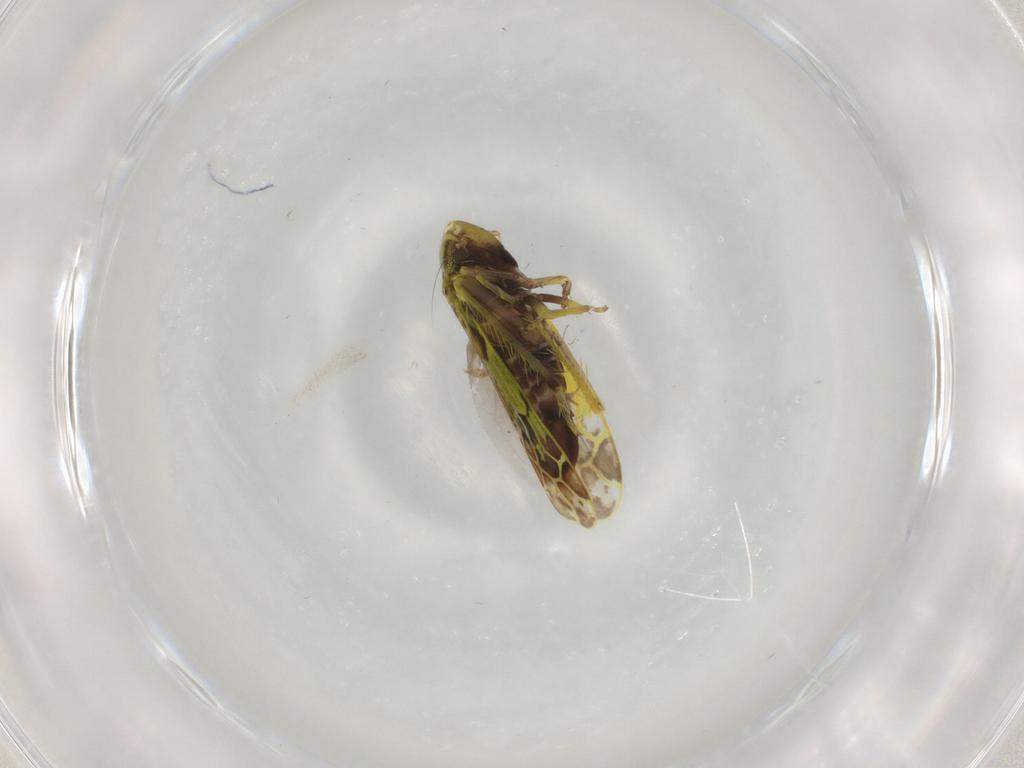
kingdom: Animalia
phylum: Arthropoda
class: Insecta
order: Hemiptera
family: Cicadellidae
